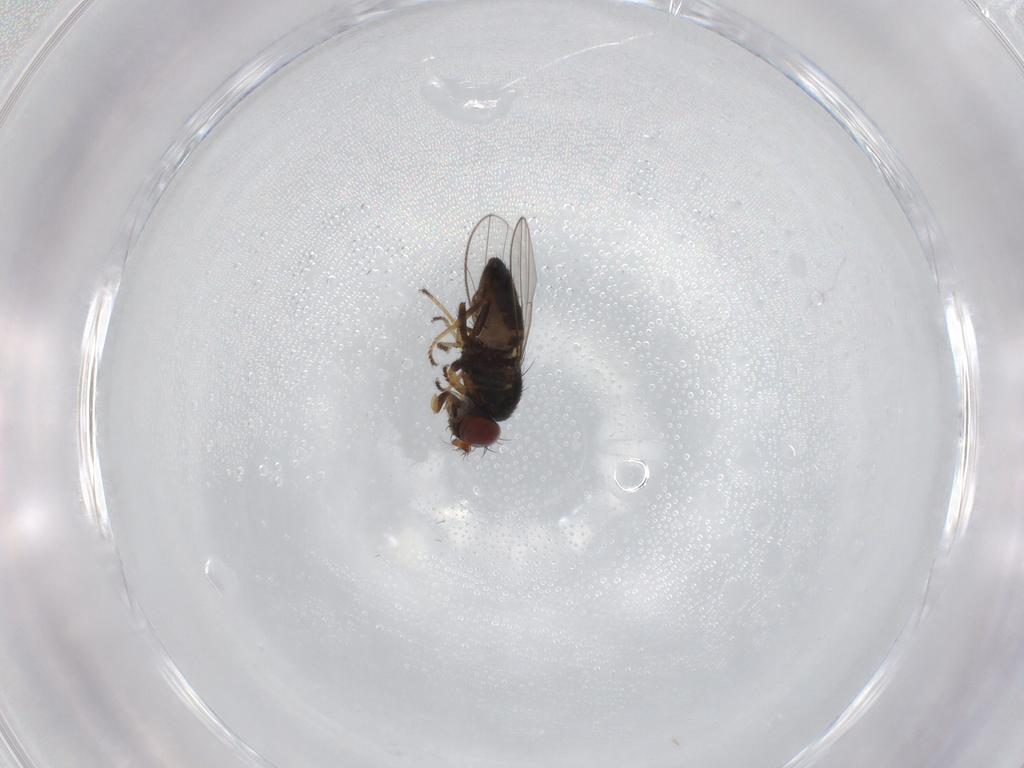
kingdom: Animalia
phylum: Arthropoda
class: Insecta
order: Diptera
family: Ephydridae
